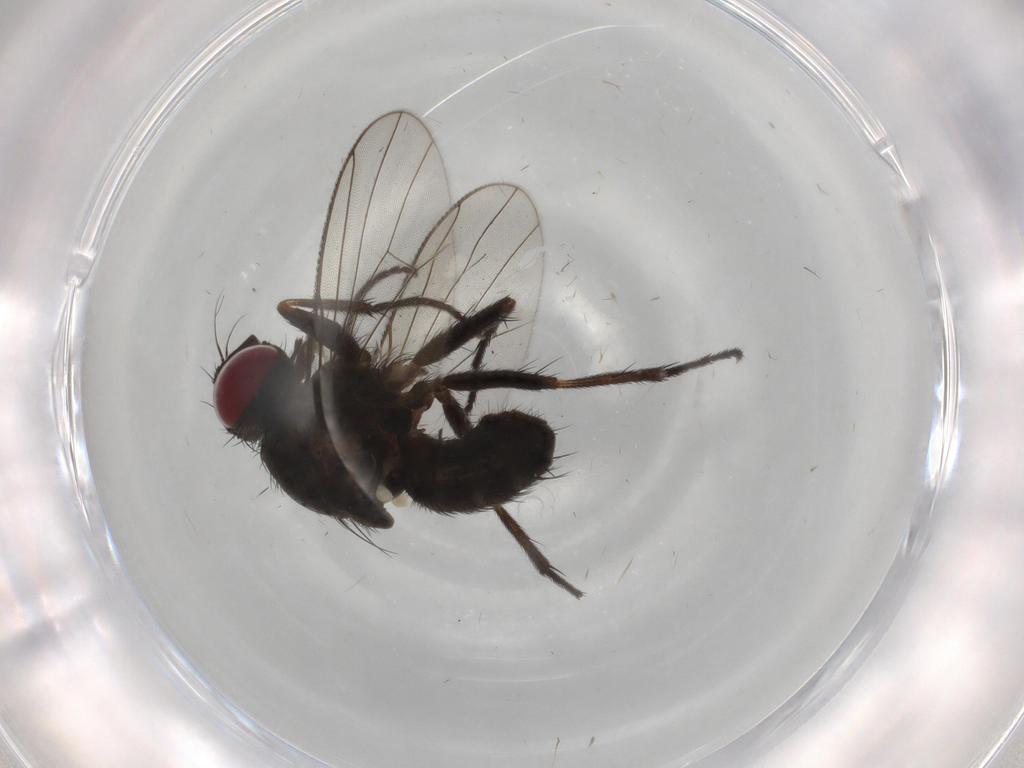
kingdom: Animalia
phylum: Arthropoda
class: Insecta
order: Diptera
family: Muscidae
